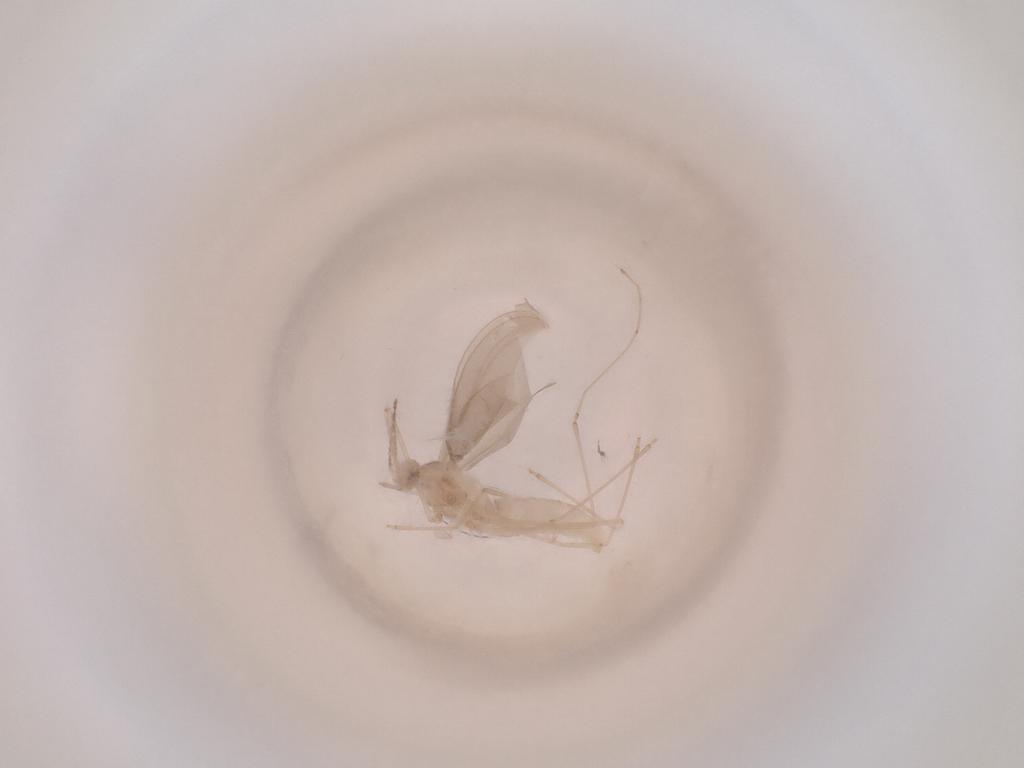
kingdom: Animalia
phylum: Arthropoda
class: Insecta
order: Diptera
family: Cecidomyiidae
